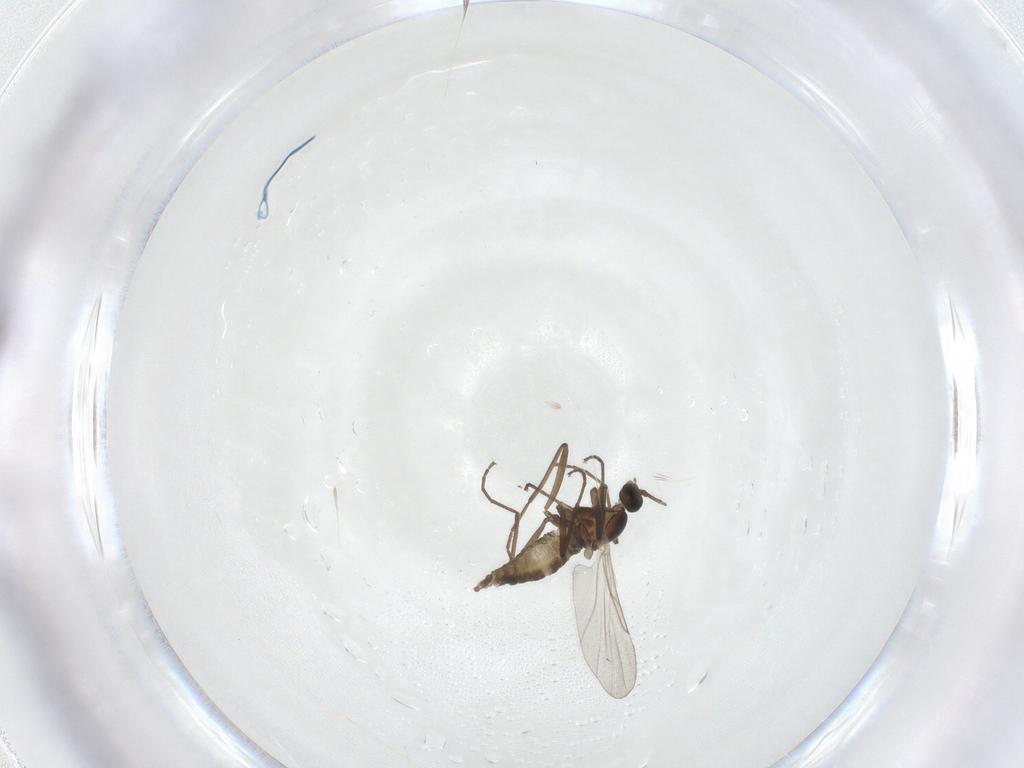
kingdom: Animalia
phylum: Arthropoda
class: Insecta
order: Diptera
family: Cecidomyiidae
